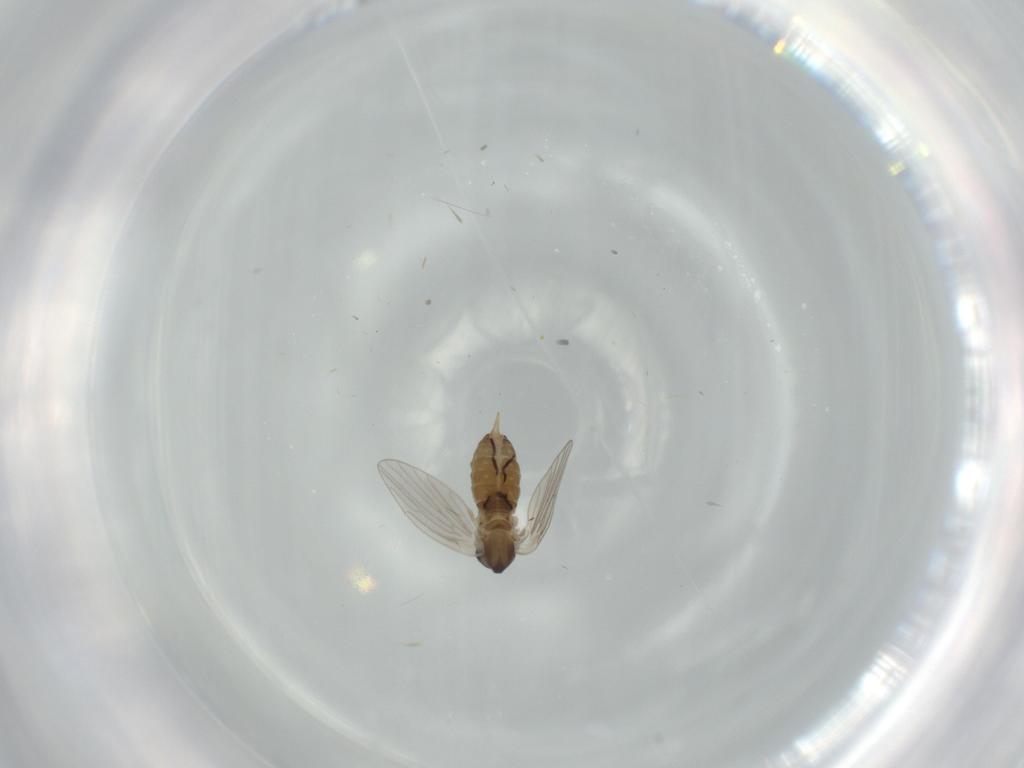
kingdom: Animalia
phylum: Arthropoda
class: Insecta
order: Diptera
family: Psychodidae
